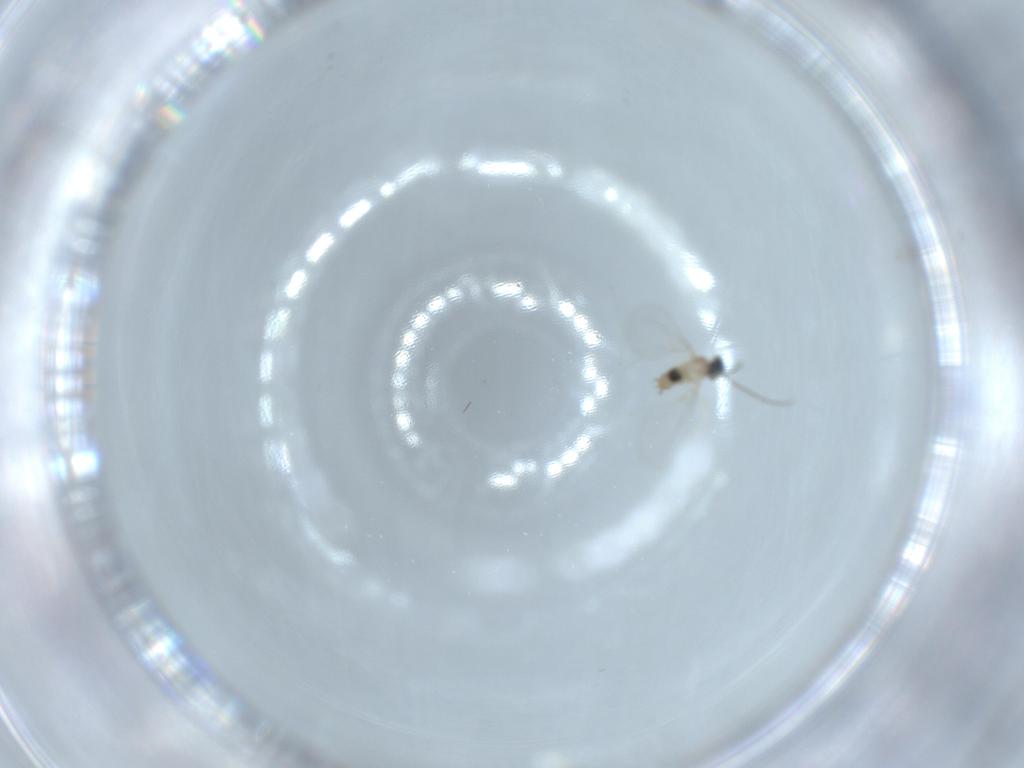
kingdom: Animalia
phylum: Arthropoda
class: Insecta
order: Diptera
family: Cecidomyiidae
